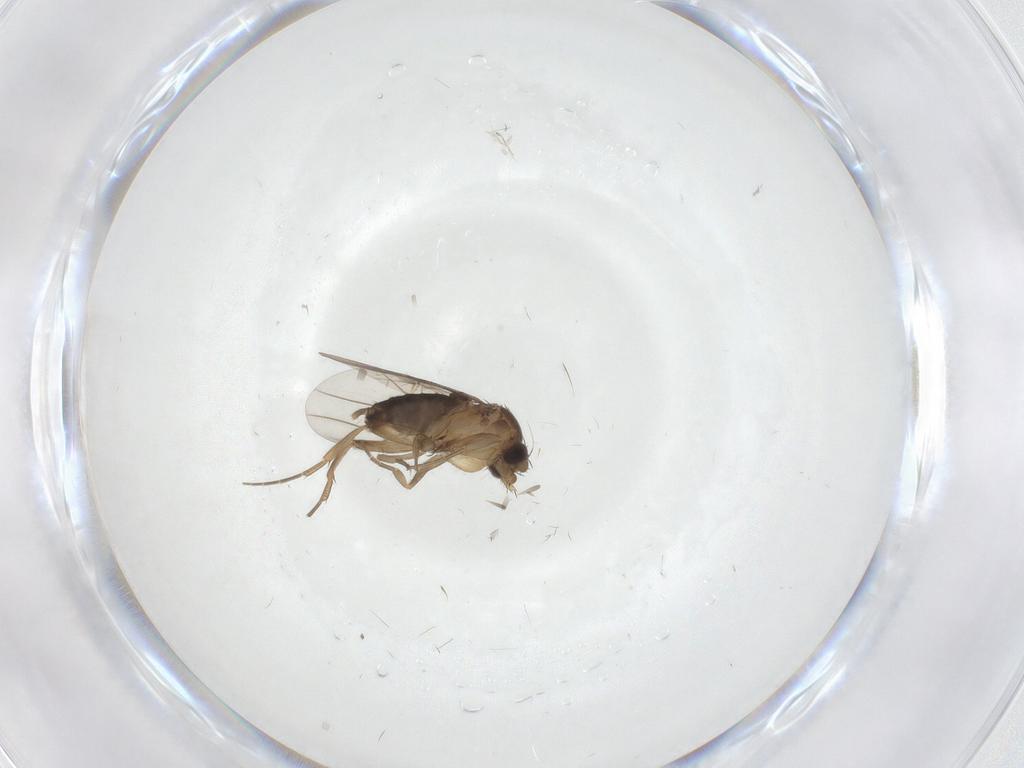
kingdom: Animalia
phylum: Arthropoda
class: Insecta
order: Diptera
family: Phoridae
